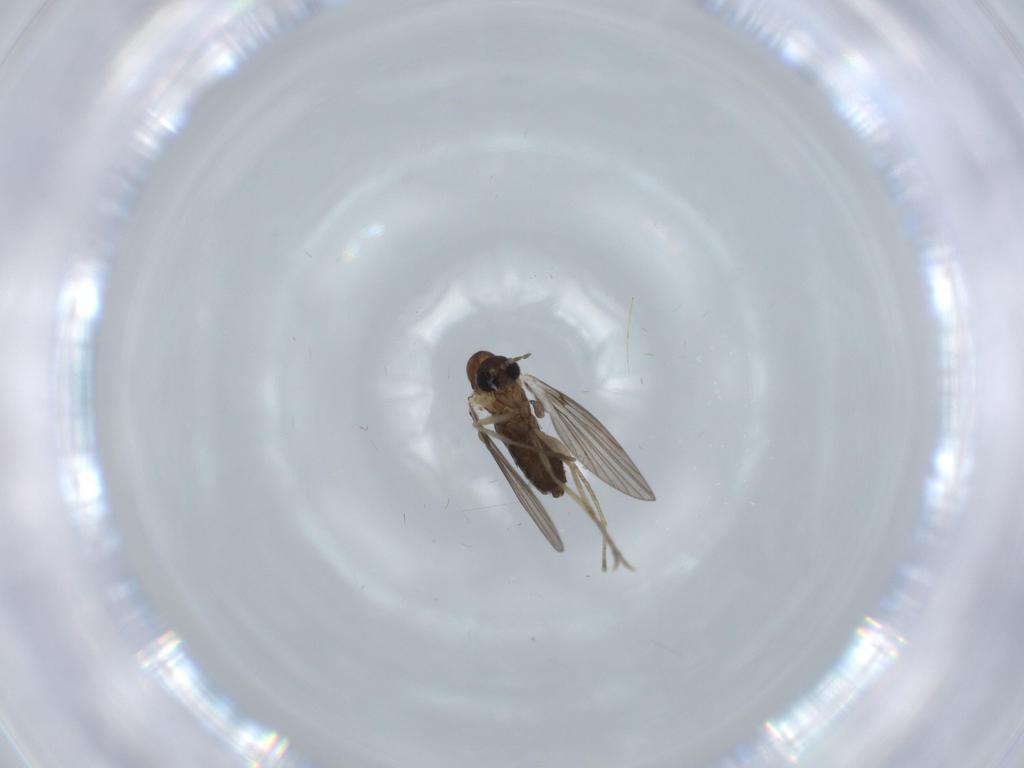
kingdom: Animalia
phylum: Arthropoda
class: Insecta
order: Diptera
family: Psychodidae
